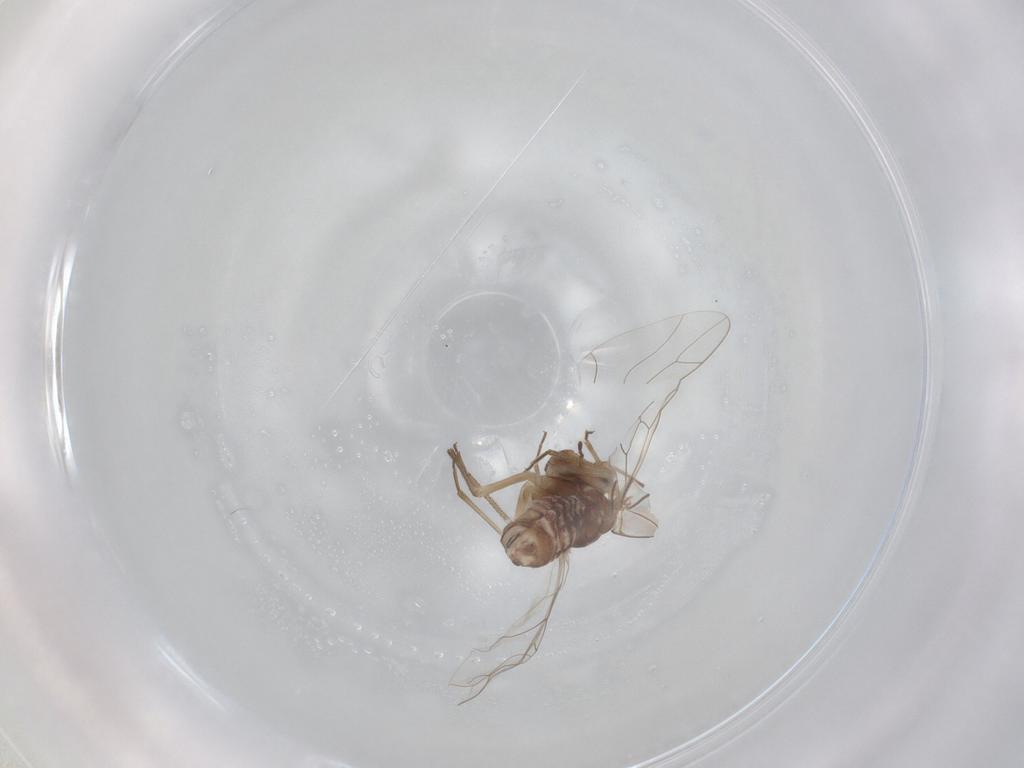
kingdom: Animalia
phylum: Arthropoda
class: Insecta
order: Psocodea
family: Lachesillidae
